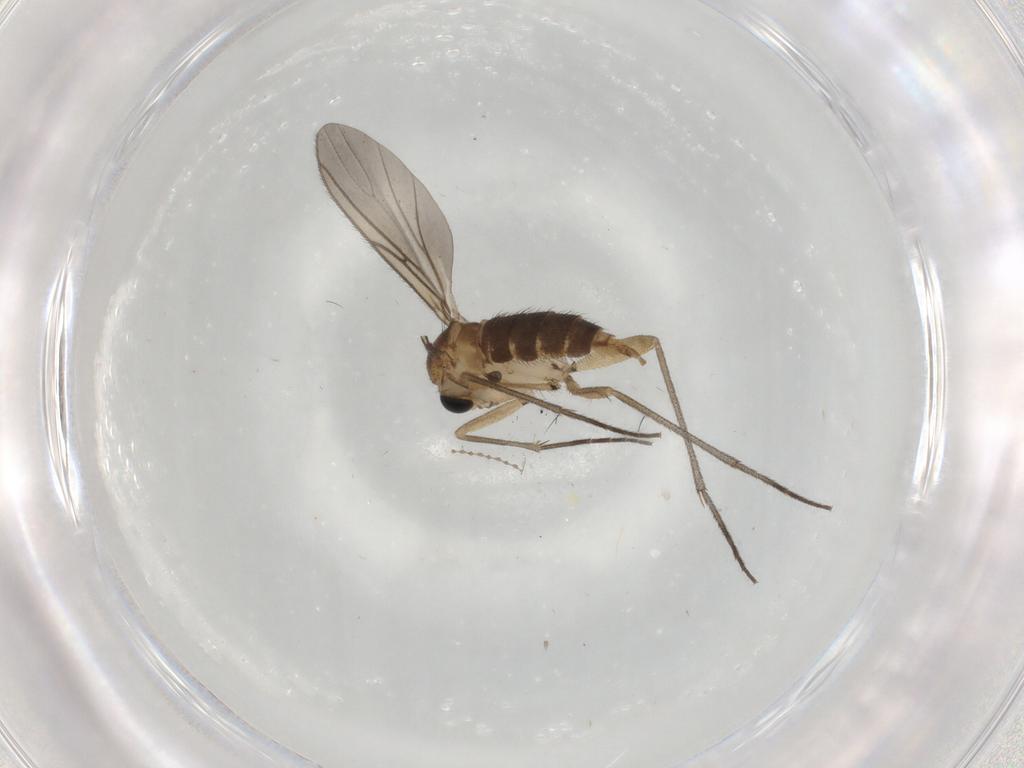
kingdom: Animalia
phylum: Arthropoda
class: Insecta
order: Diptera
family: Sciaridae
